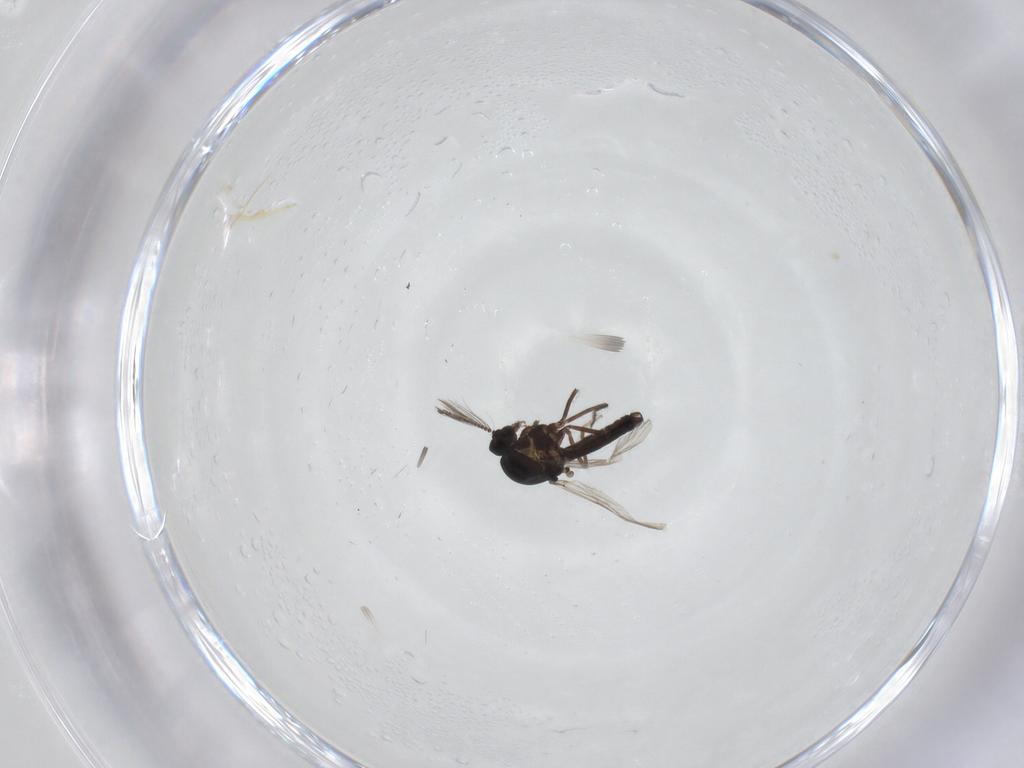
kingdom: Animalia
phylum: Arthropoda
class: Insecta
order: Diptera
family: Ceratopogonidae
